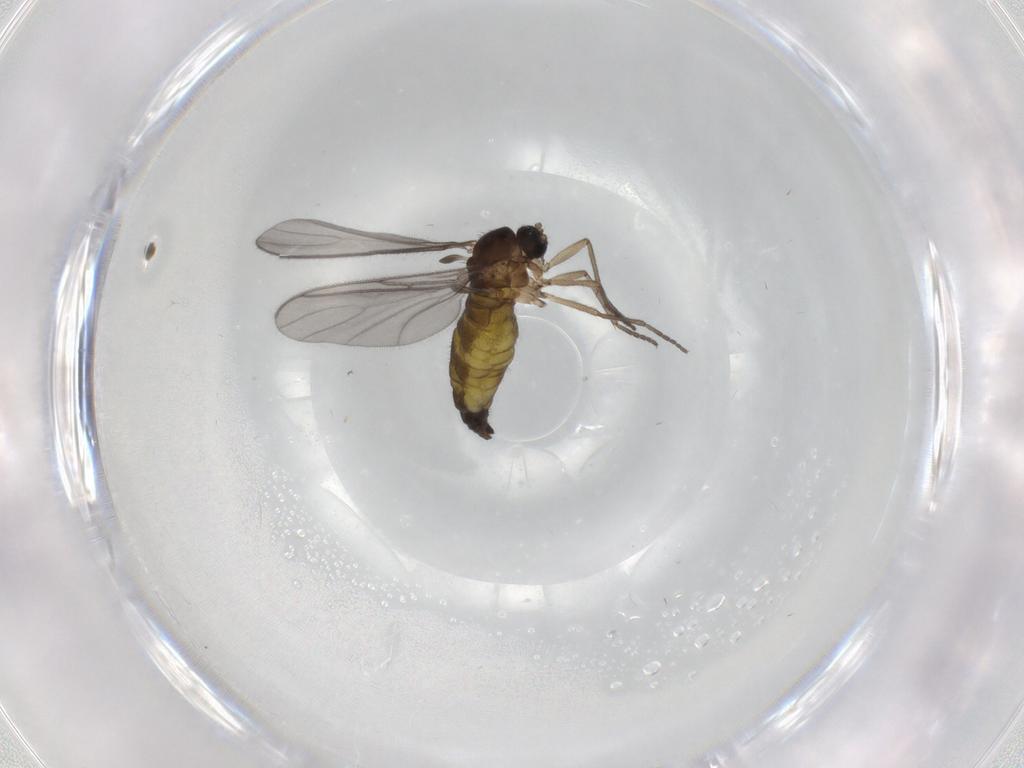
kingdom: Animalia
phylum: Arthropoda
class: Insecta
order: Diptera
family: Sciaridae
